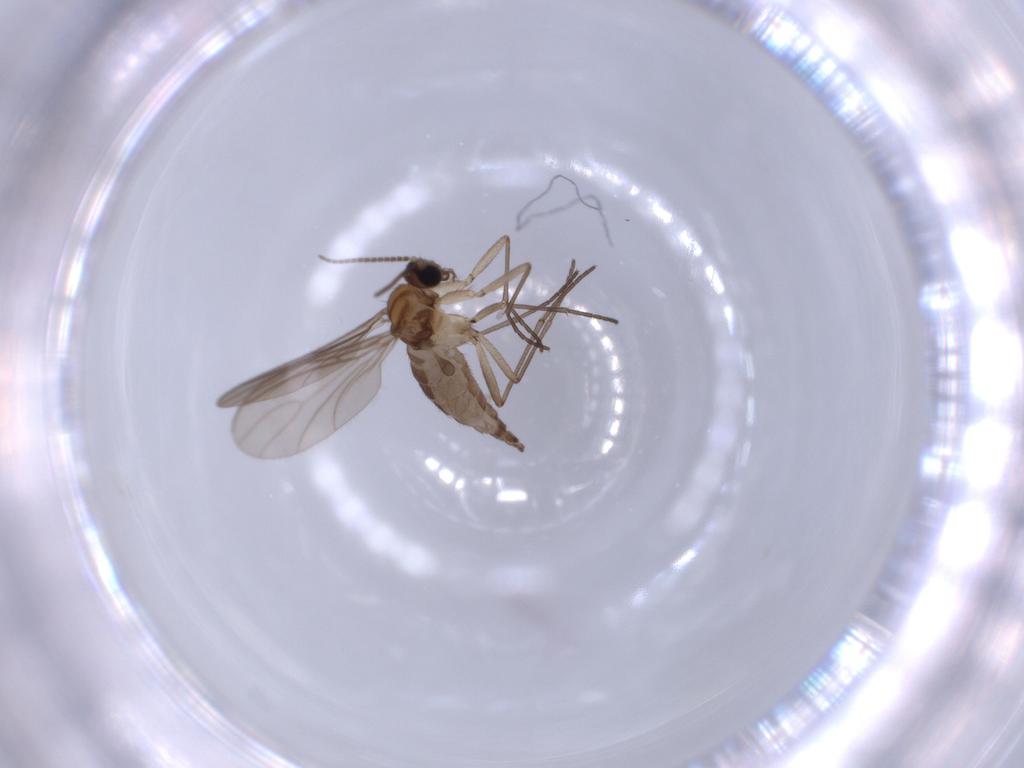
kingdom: Animalia
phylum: Arthropoda
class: Insecta
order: Diptera
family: Sciaridae
